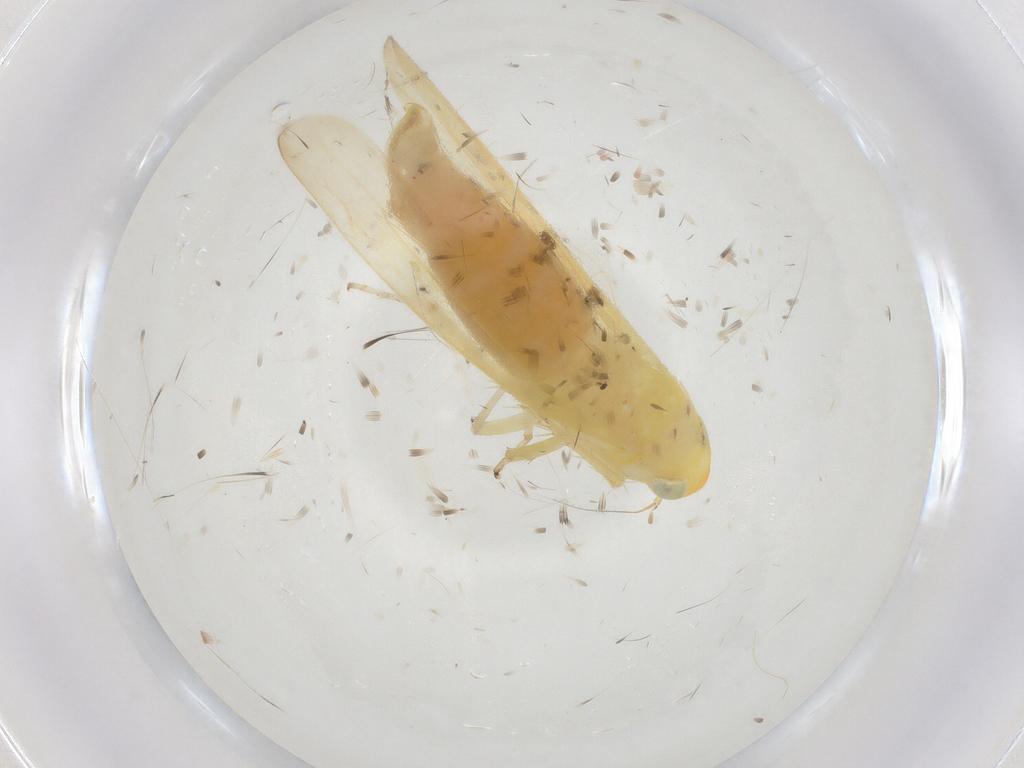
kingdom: Animalia
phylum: Arthropoda
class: Insecta
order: Hemiptera
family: Cicadellidae
